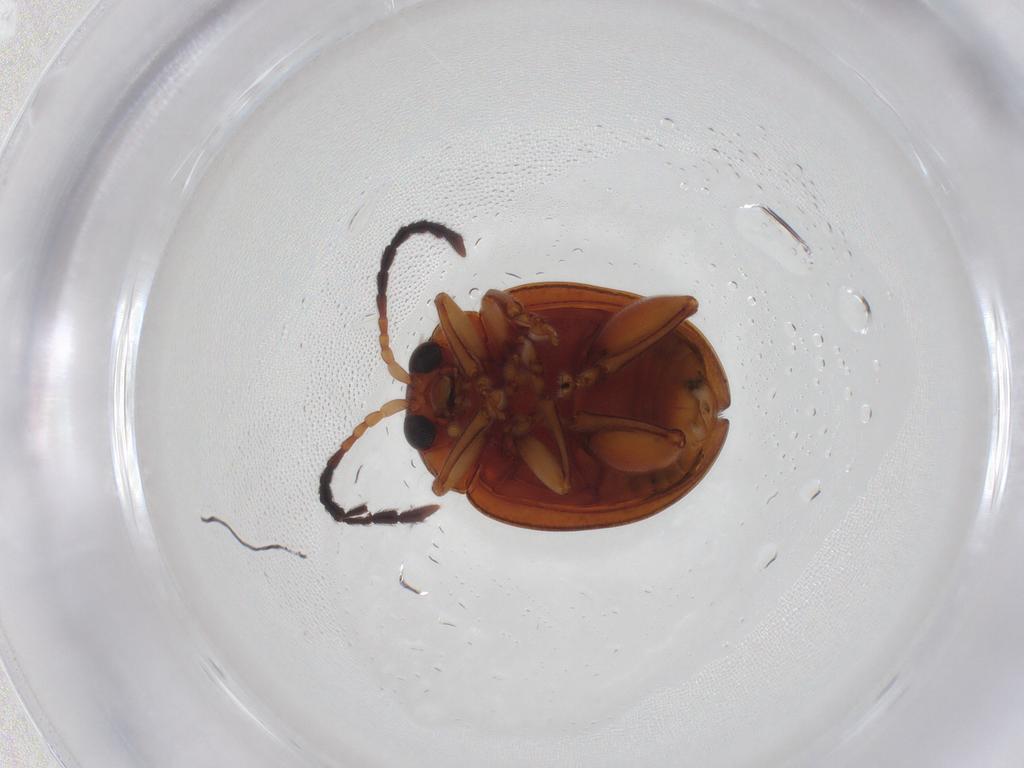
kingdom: Animalia
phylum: Arthropoda
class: Insecta
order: Coleoptera
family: Chrysomelidae
